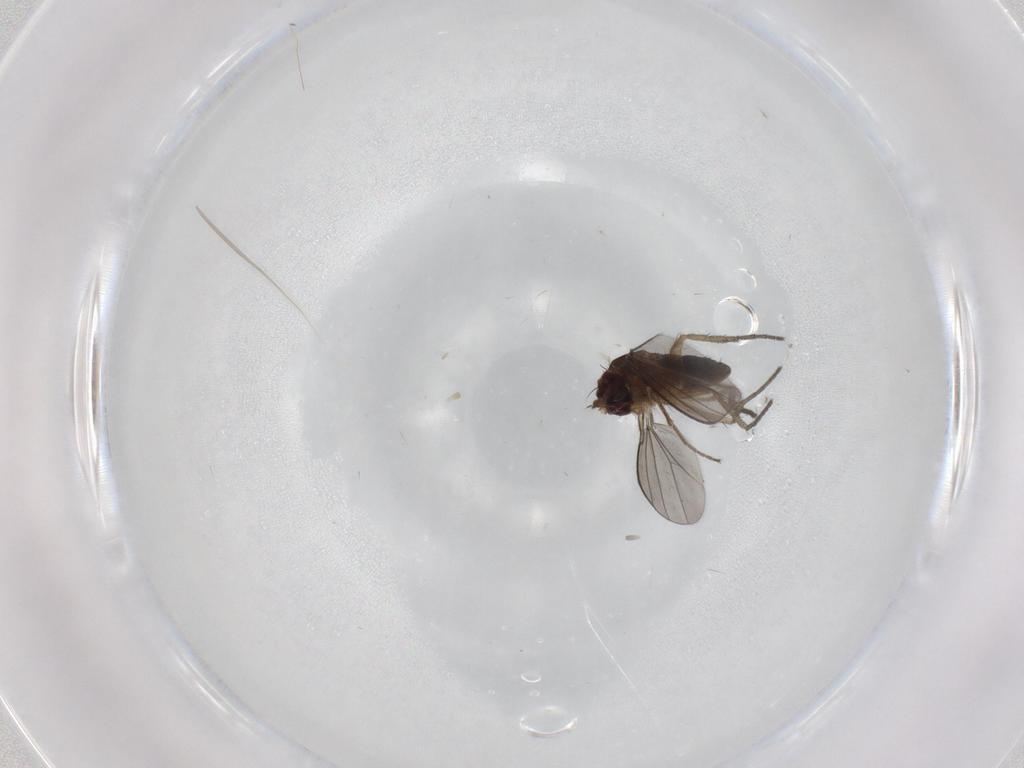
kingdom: Animalia
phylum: Arthropoda
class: Insecta
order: Diptera
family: Dolichopodidae
